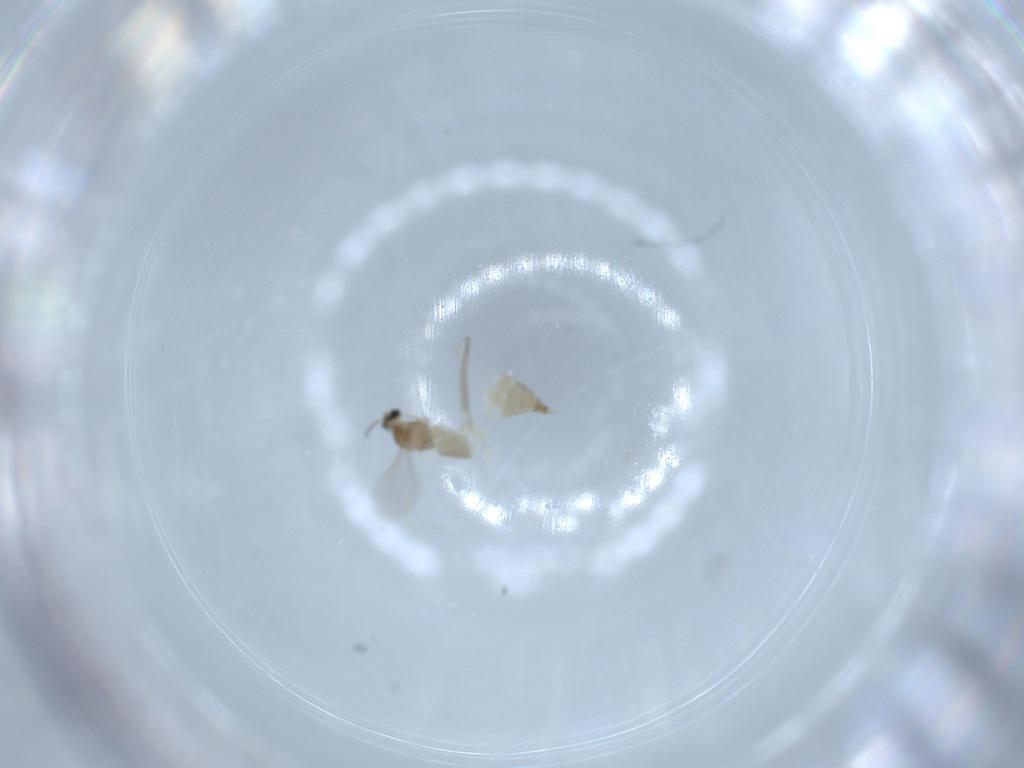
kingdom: Animalia
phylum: Arthropoda
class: Insecta
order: Diptera
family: Cecidomyiidae
